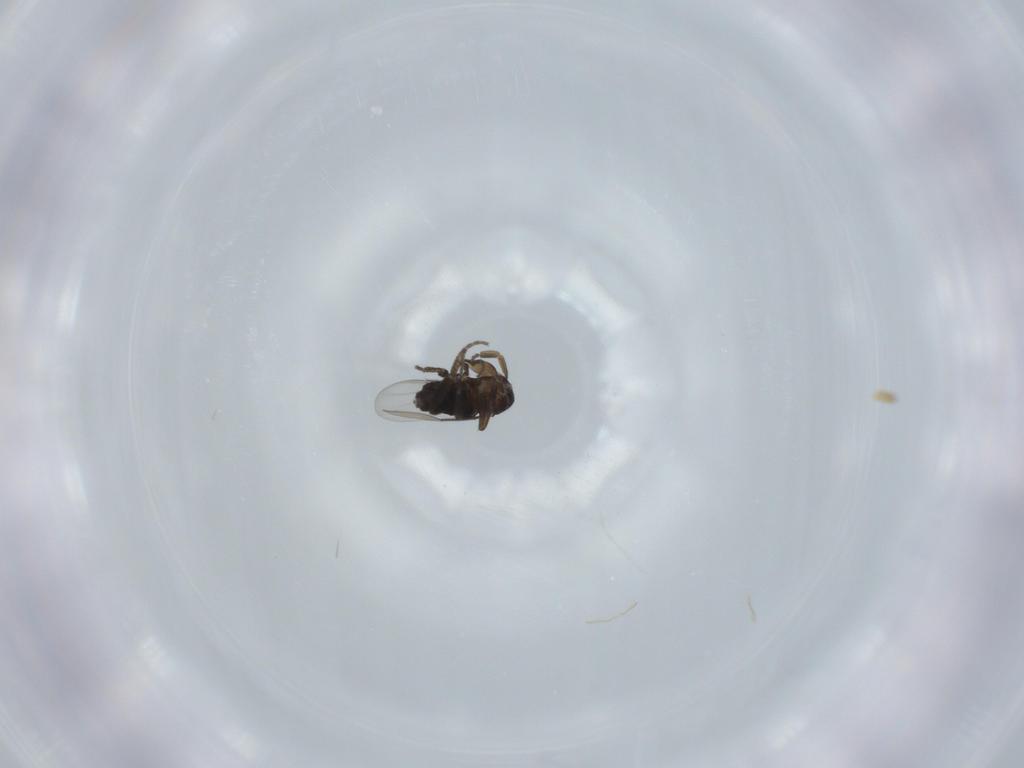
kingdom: Animalia
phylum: Arthropoda
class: Insecta
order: Diptera
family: Phoridae
